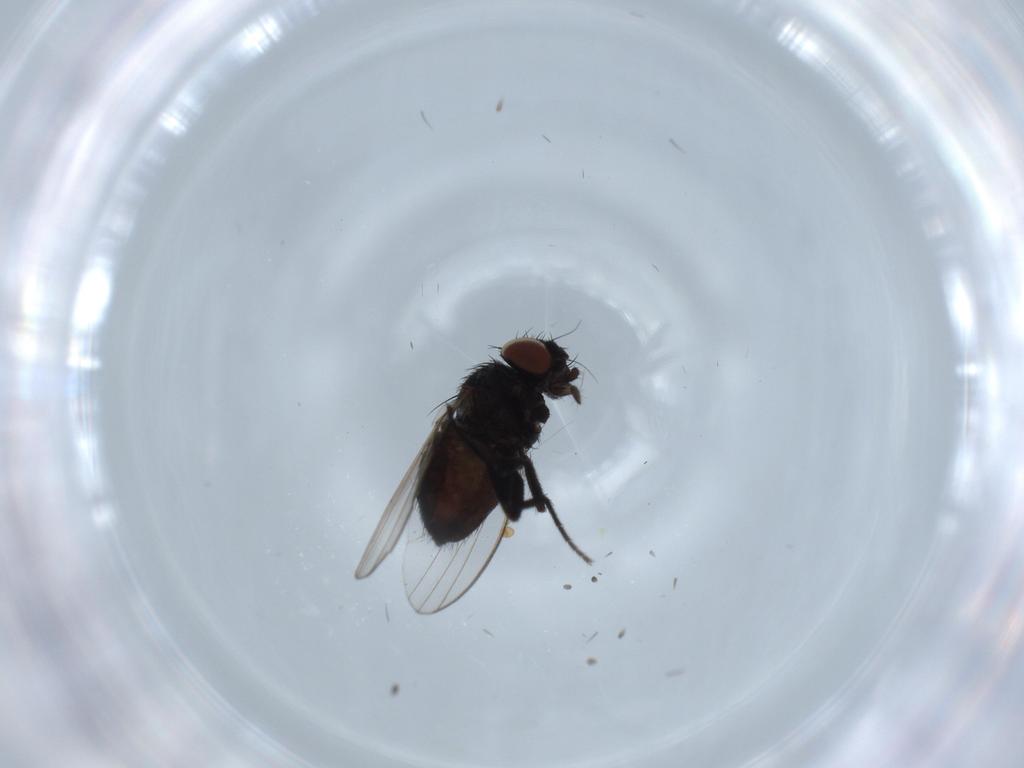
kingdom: Animalia
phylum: Arthropoda
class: Insecta
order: Diptera
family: Milichiidae
